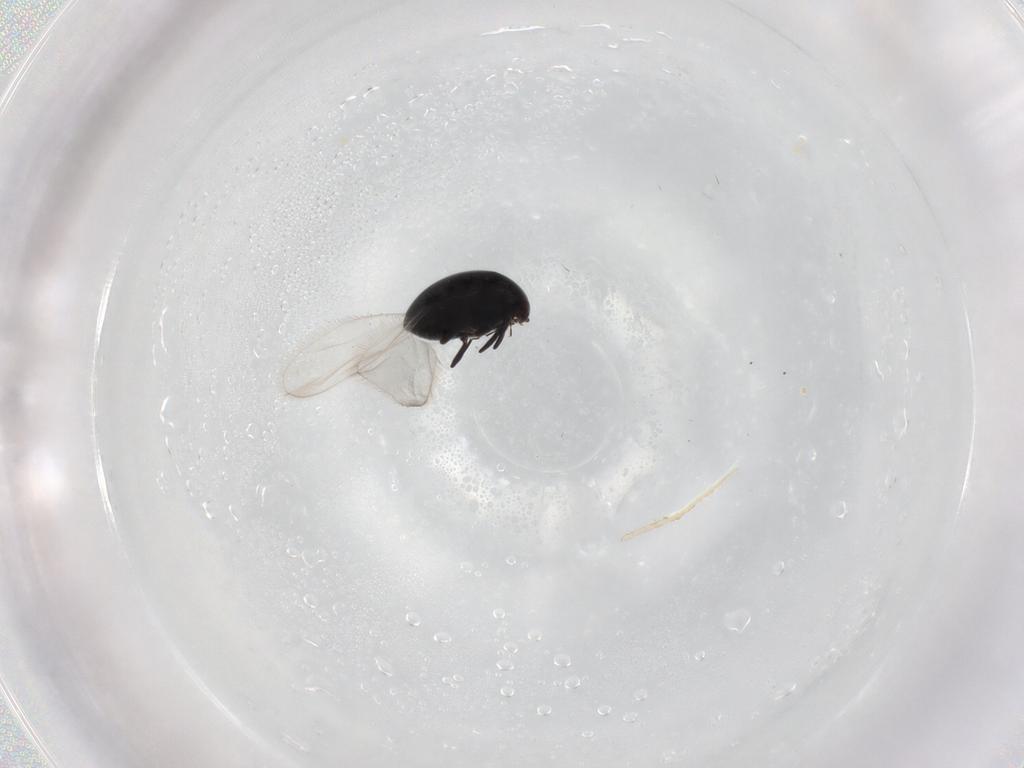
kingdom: Animalia
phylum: Arthropoda
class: Insecta
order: Coleoptera
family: Corylophidae
